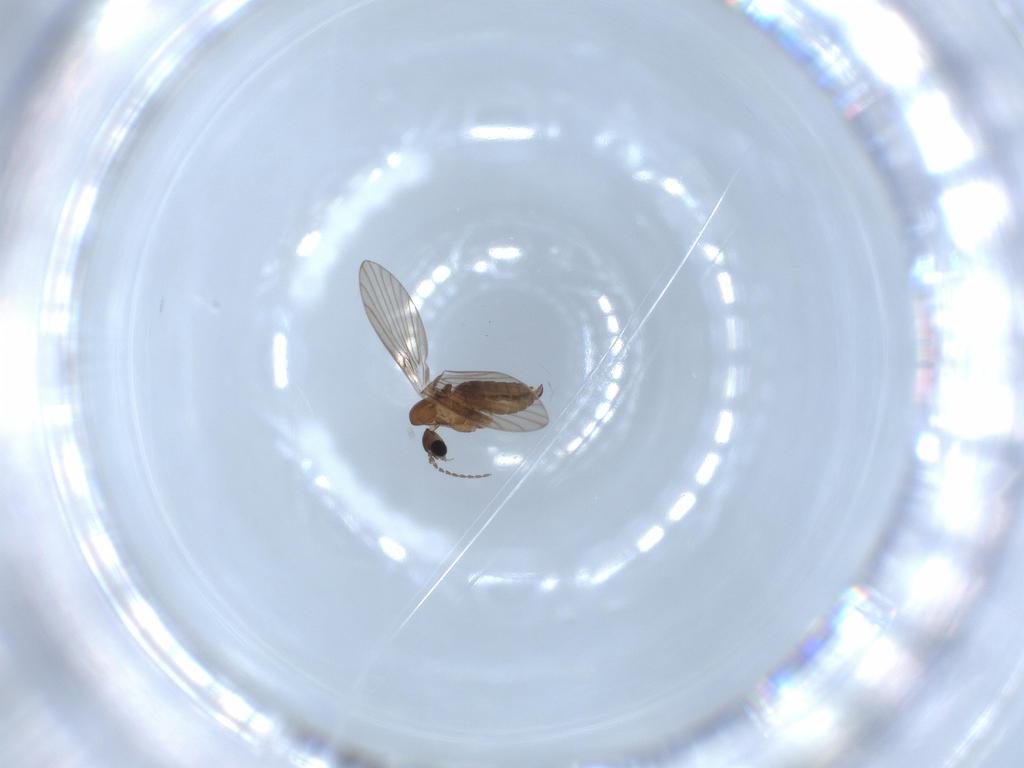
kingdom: Animalia
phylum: Arthropoda
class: Insecta
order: Diptera
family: Psychodidae
